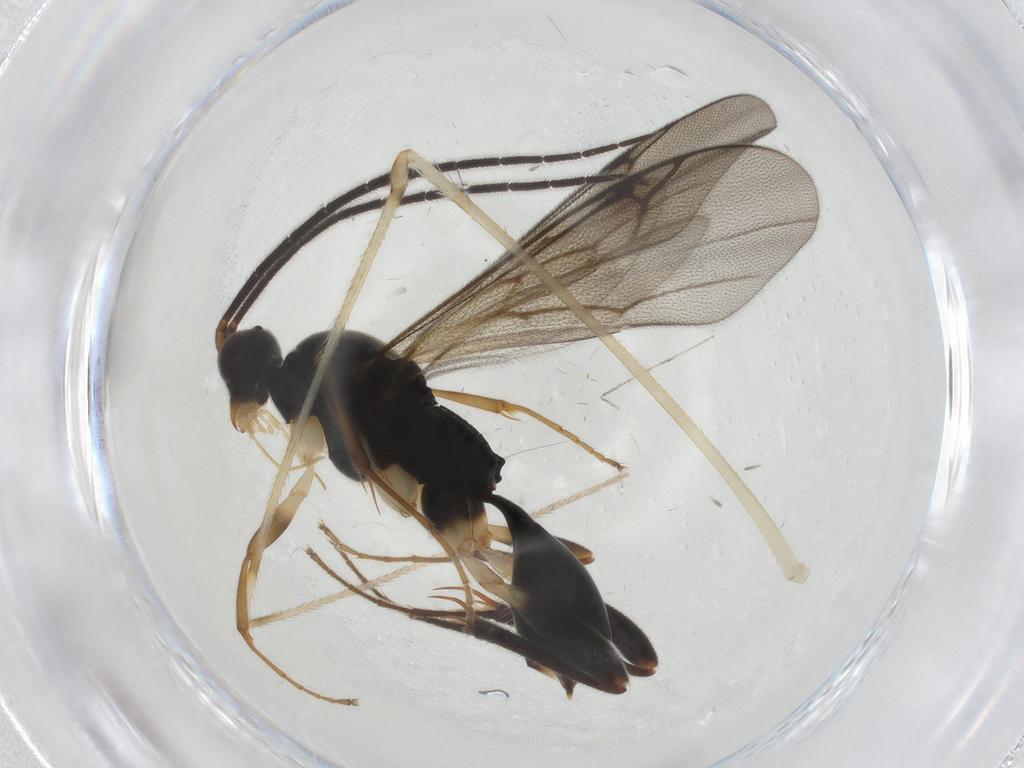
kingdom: Animalia
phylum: Arthropoda
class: Insecta
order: Hymenoptera
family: Proctotrupidae
